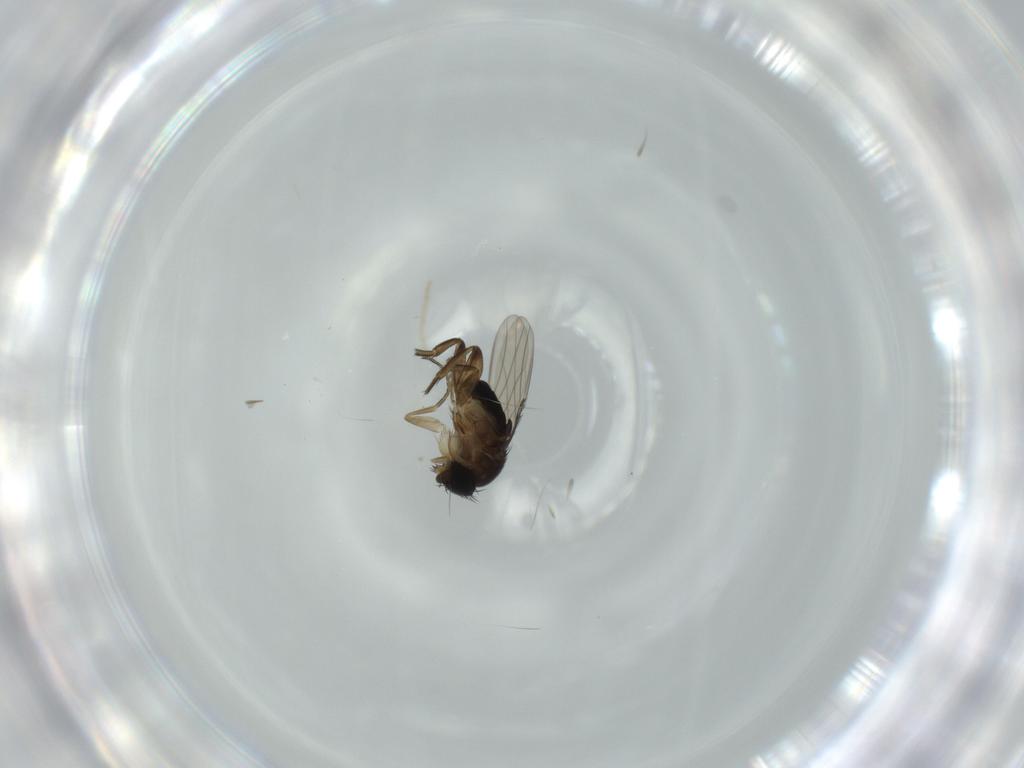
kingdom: Animalia
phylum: Arthropoda
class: Insecta
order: Diptera
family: Phoridae
